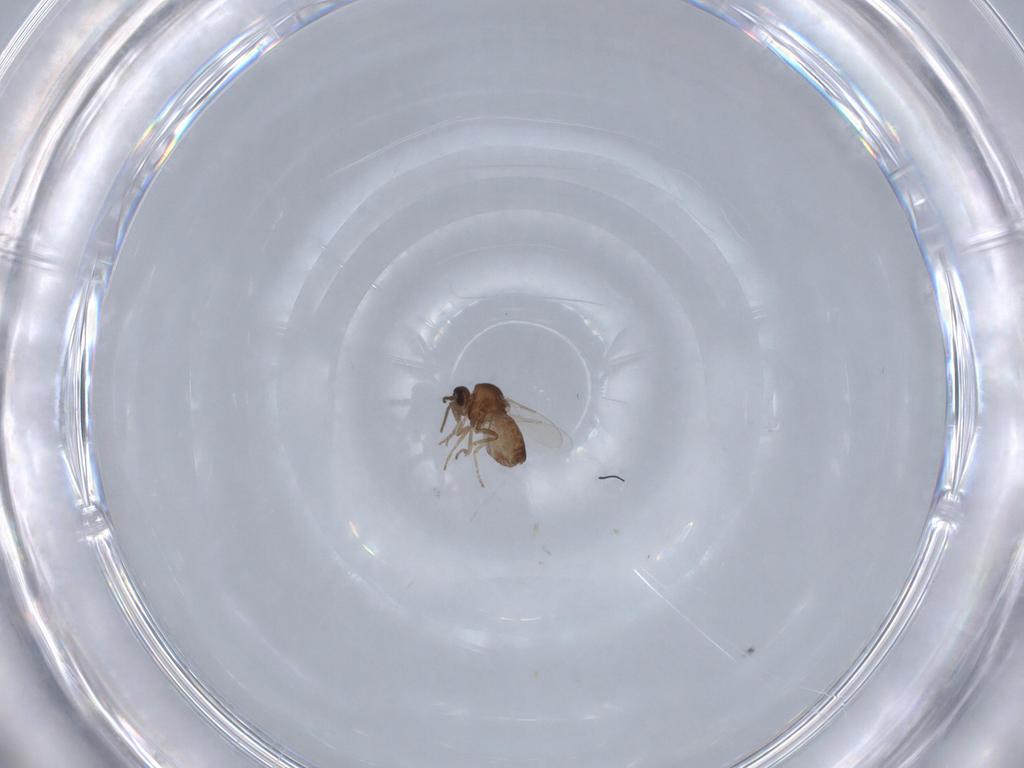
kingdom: Animalia
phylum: Arthropoda
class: Insecta
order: Diptera
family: Ceratopogonidae
